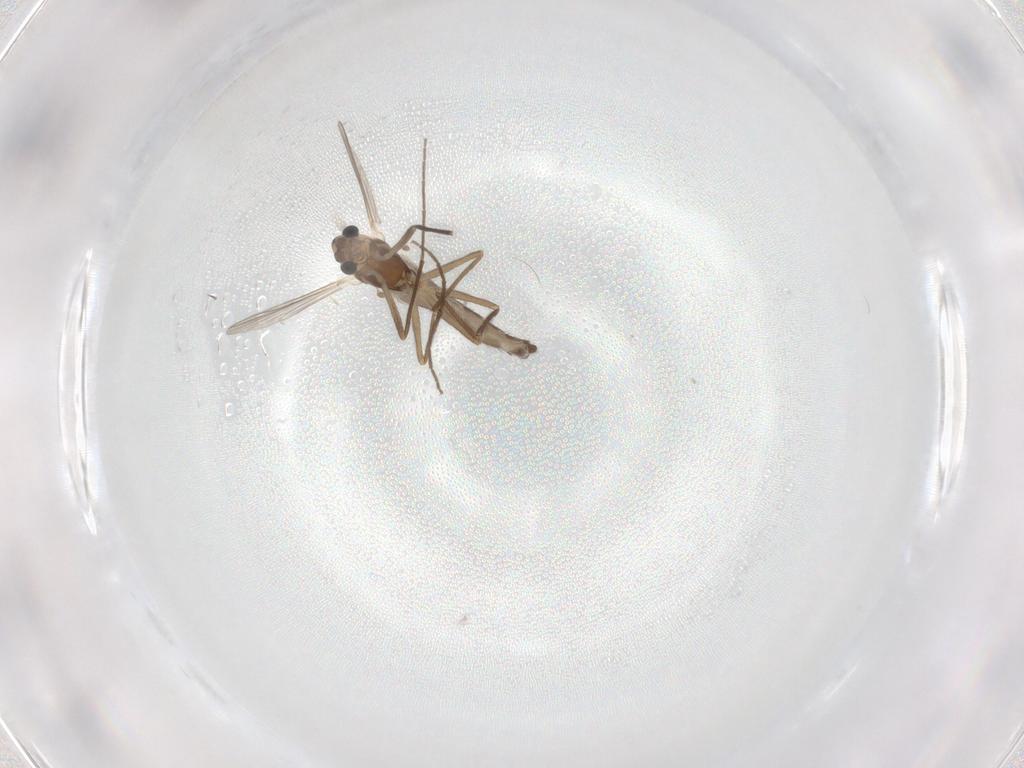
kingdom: Animalia
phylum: Arthropoda
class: Insecta
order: Diptera
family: Chironomidae
